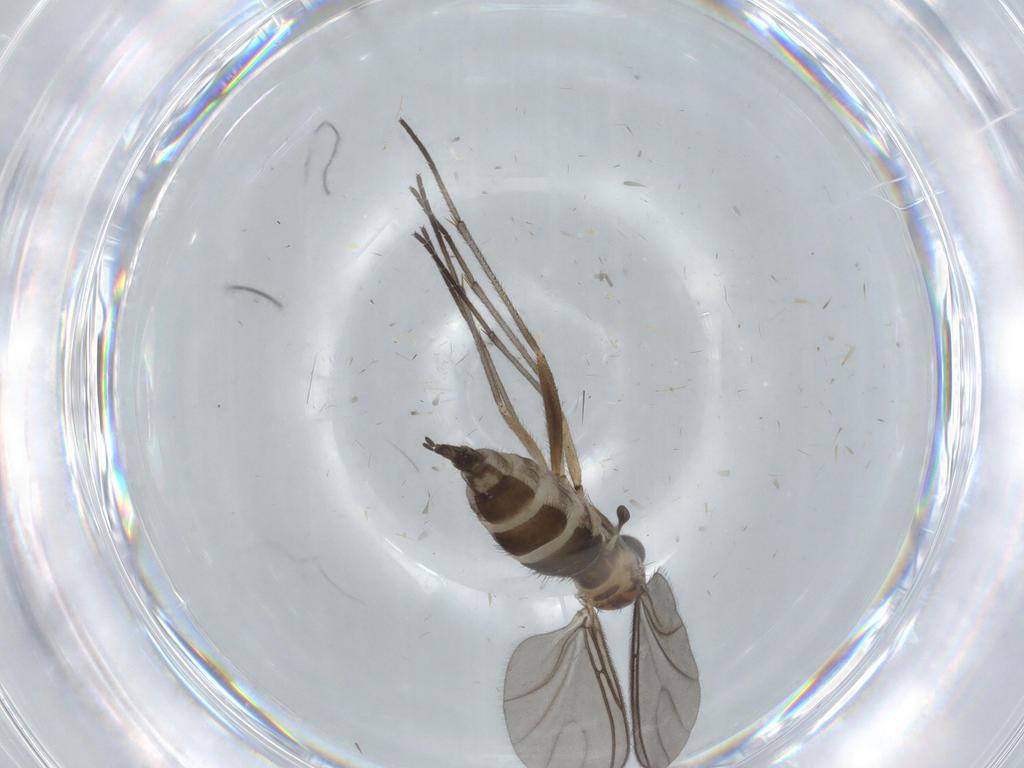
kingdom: Animalia
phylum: Arthropoda
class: Insecta
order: Diptera
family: Sciaridae
